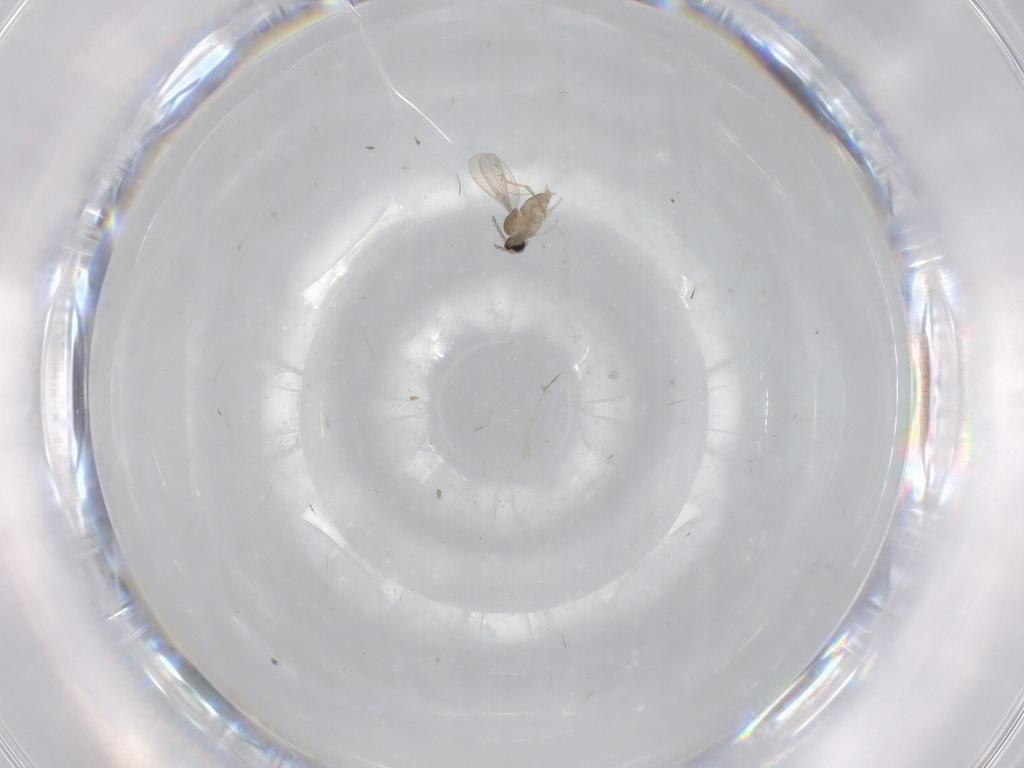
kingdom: Animalia
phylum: Arthropoda
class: Insecta
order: Diptera
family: Culicidae
